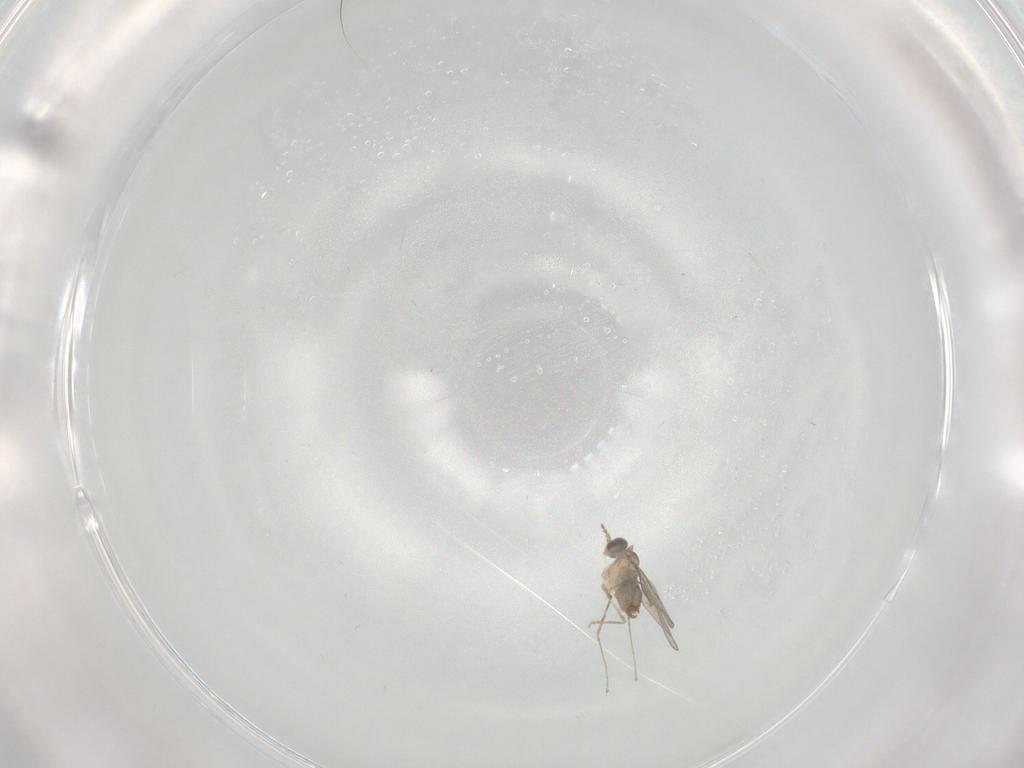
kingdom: Animalia
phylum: Arthropoda
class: Insecta
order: Diptera
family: Cecidomyiidae
